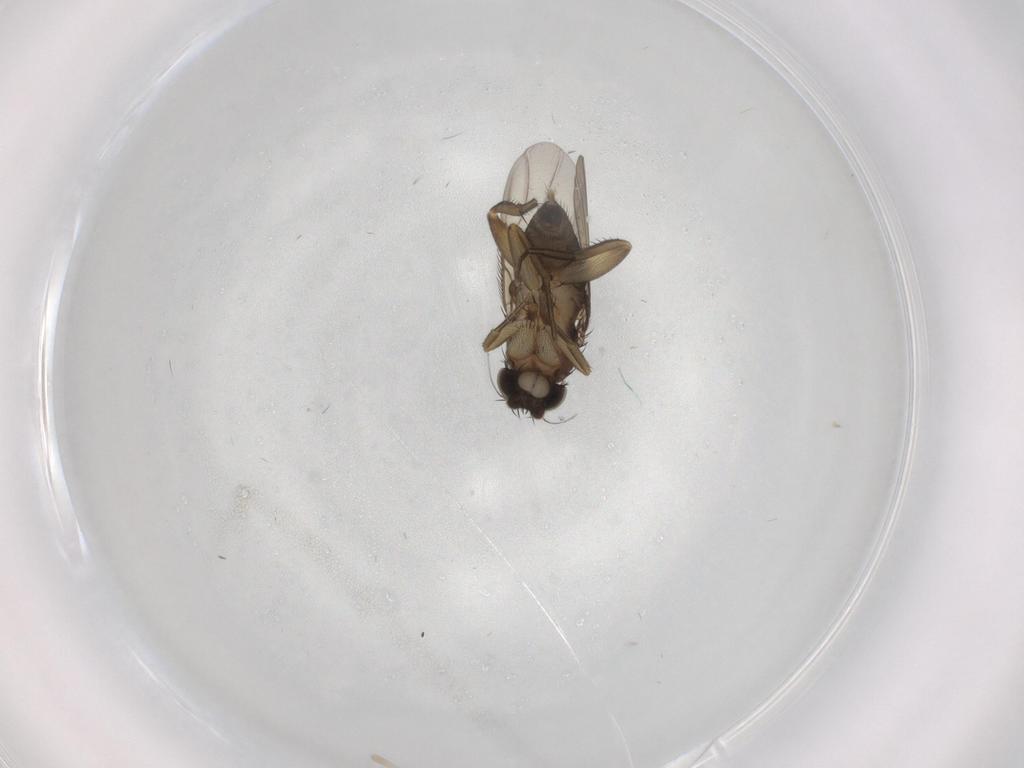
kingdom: Animalia
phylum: Arthropoda
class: Insecta
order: Diptera
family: Phoridae
